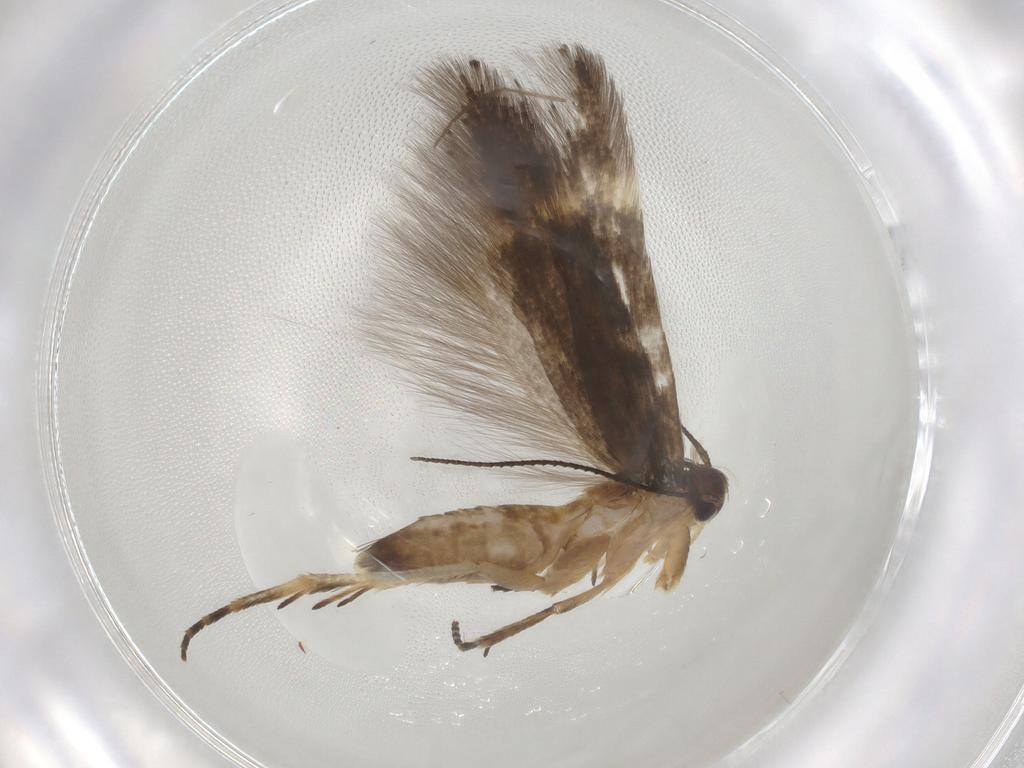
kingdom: Animalia
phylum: Arthropoda
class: Insecta
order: Lepidoptera
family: Gelechiidae
